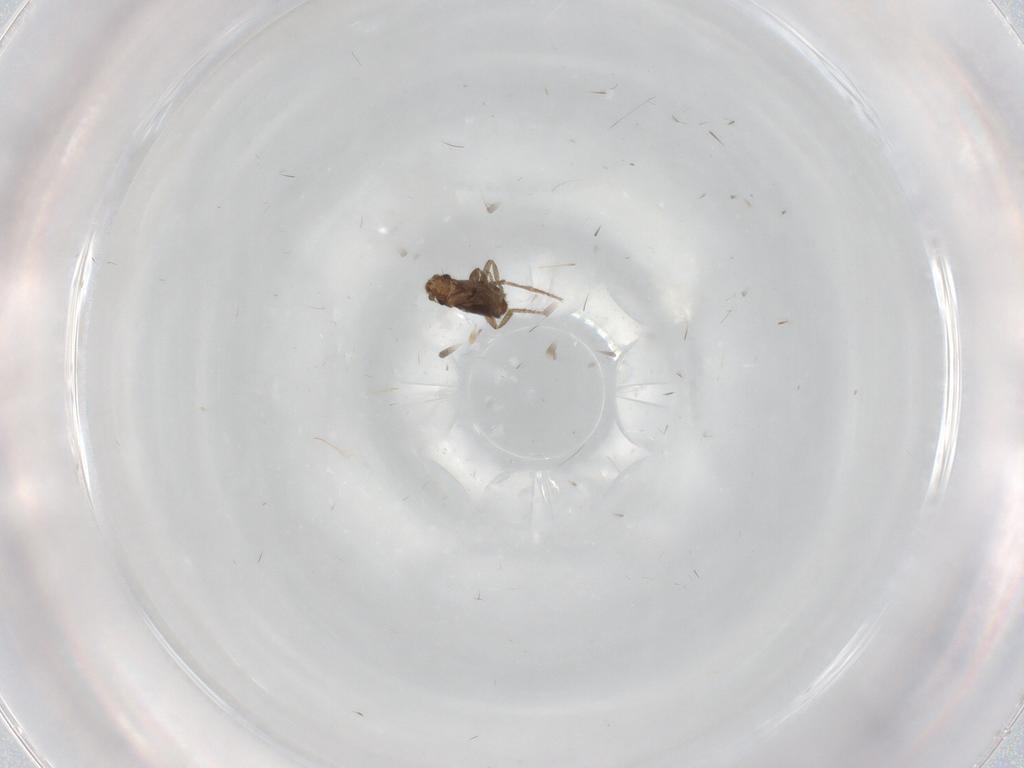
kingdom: Animalia
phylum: Arthropoda
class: Insecta
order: Diptera
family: Phoridae
